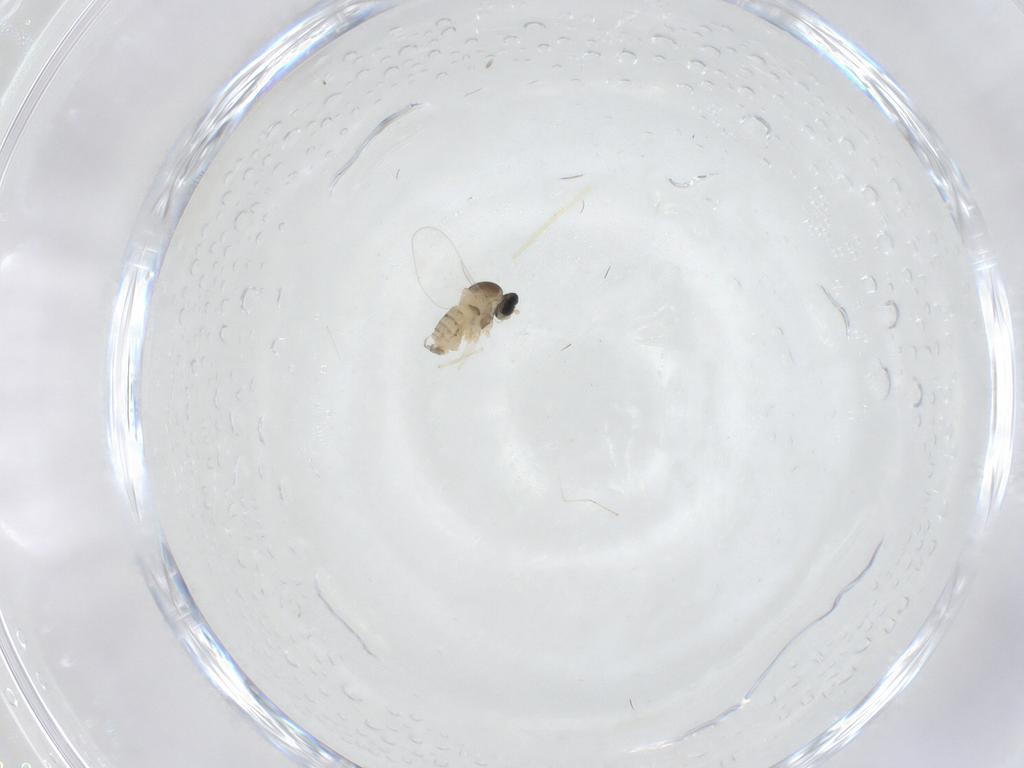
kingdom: Animalia
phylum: Arthropoda
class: Insecta
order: Diptera
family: Cecidomyiidae
